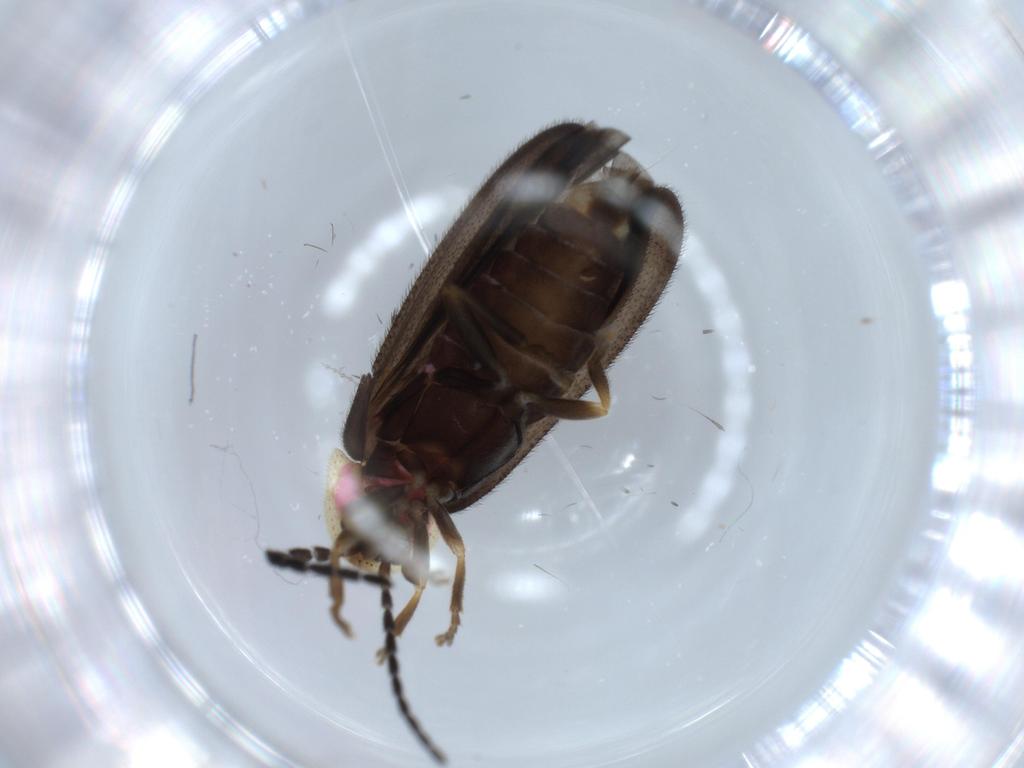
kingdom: Animalia
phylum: Arthropoda
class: Insecta
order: Coleoptera
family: Lampyridae
